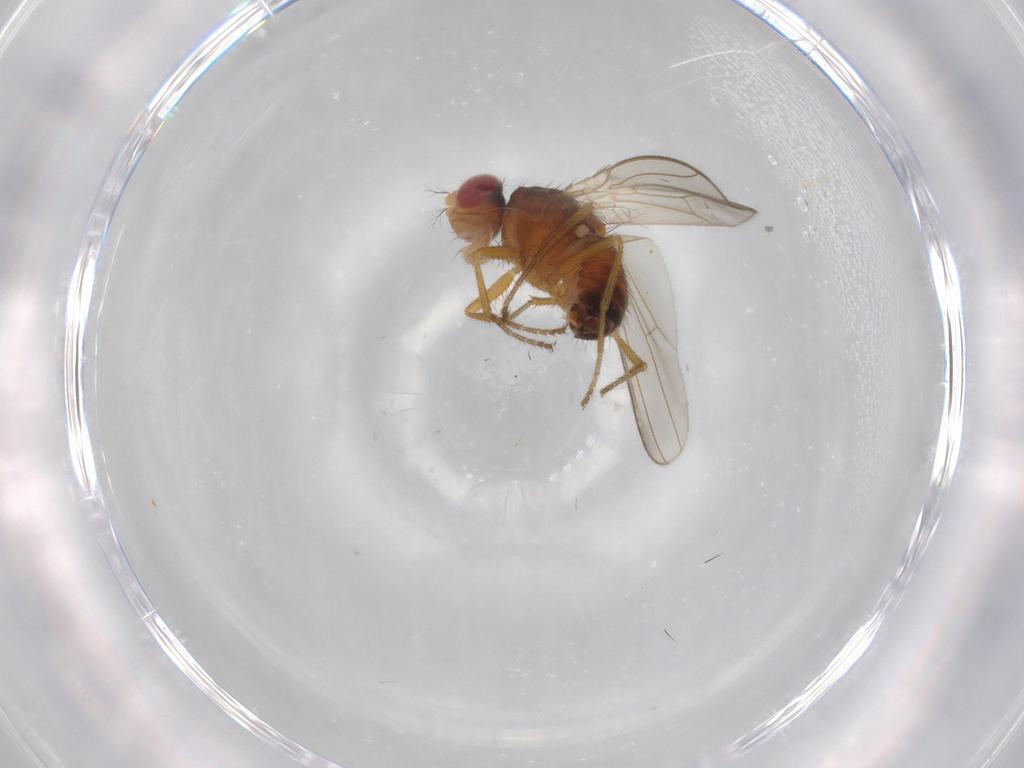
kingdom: Animalia
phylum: Arthropoda
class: Insecta
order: Diptera
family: Drosophilidae
